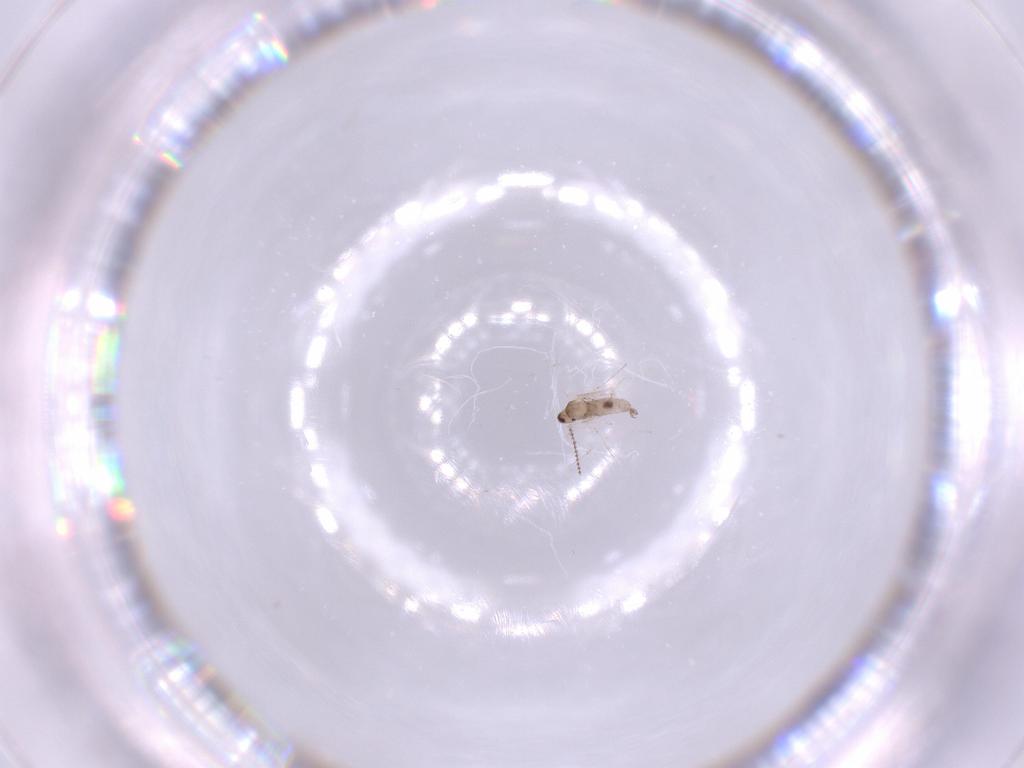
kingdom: Animalia
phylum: Arthropoda
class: Insecta
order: Diptera
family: Cecidomyiidae
